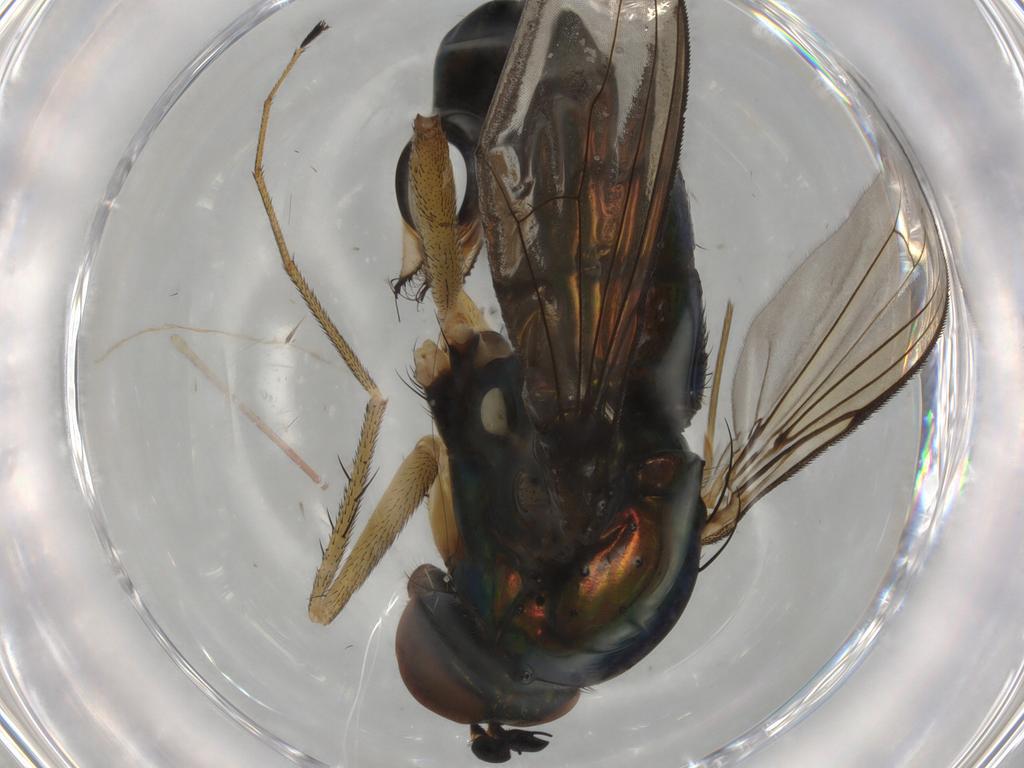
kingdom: Animalia
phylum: Arthropoda
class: Insecta
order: Diptera
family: Dolichopodidae
